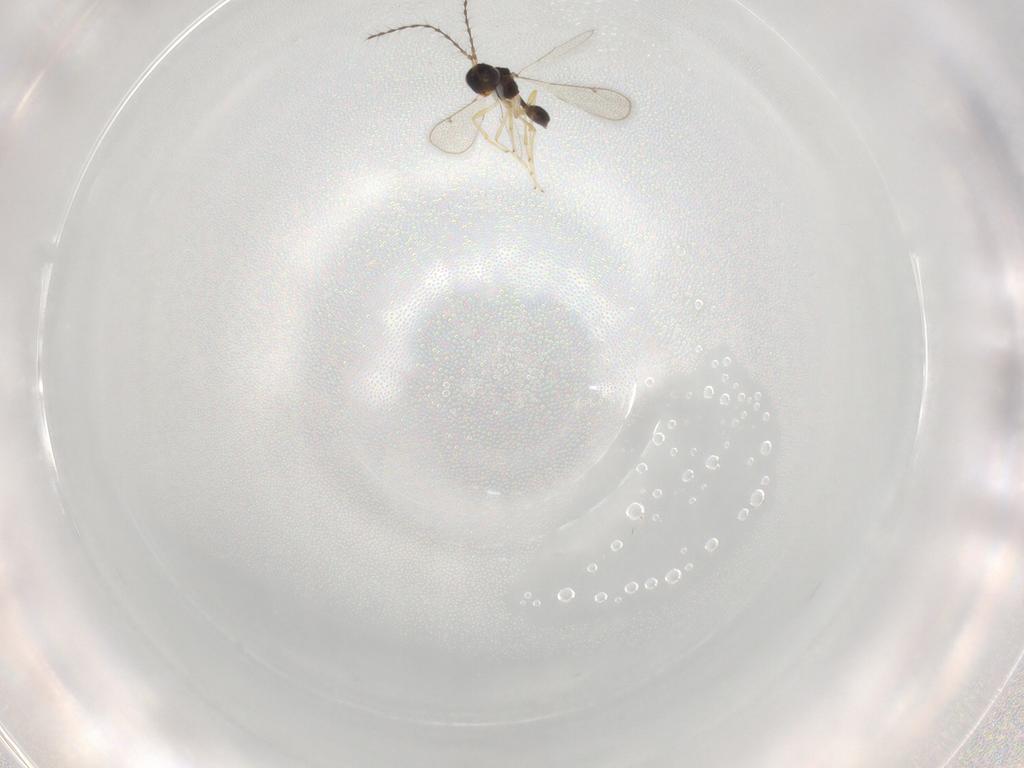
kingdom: Animalia
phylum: Arthropoda
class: Insecta
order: Hymenoptera
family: Diparidae
